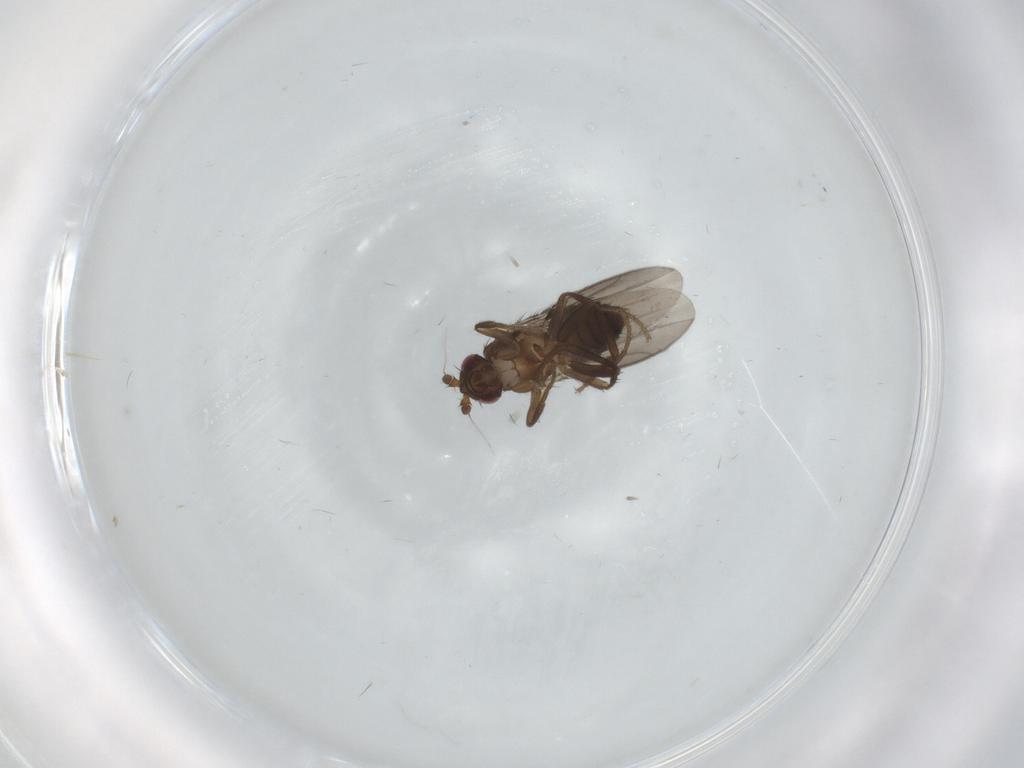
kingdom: Animalia
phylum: Arthropoda
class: Insecta
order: Diptera
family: Sphaeroceridae
